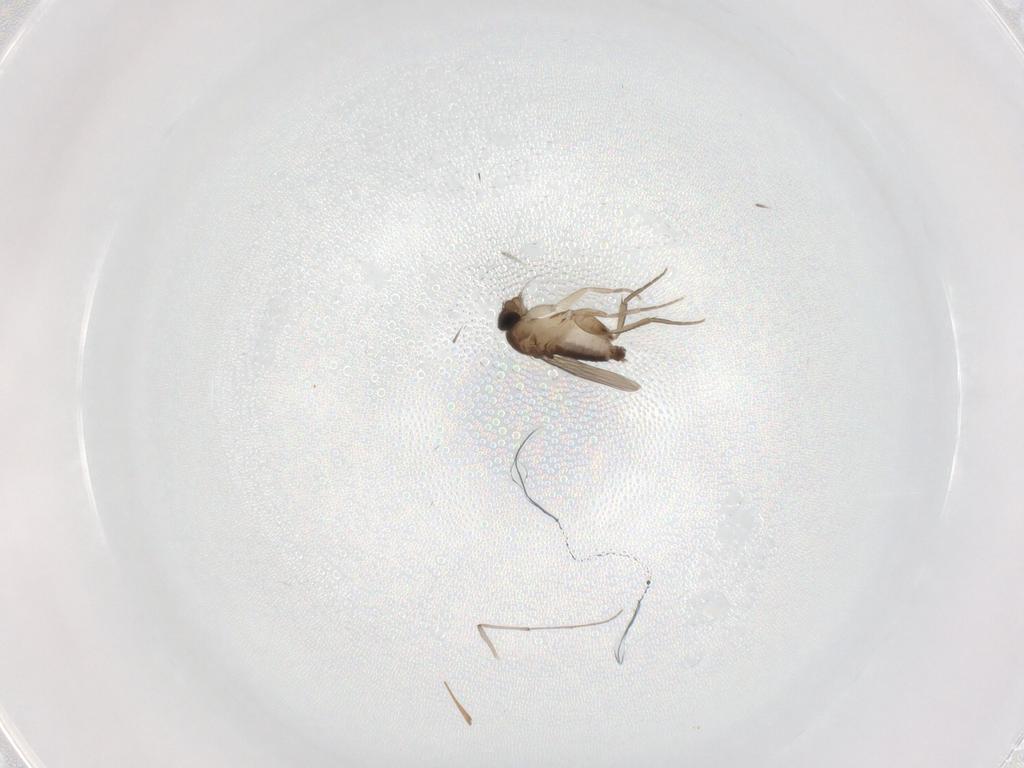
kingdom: Animalia
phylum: Arthropoda
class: Insecta
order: Diptera
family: Phoridae
